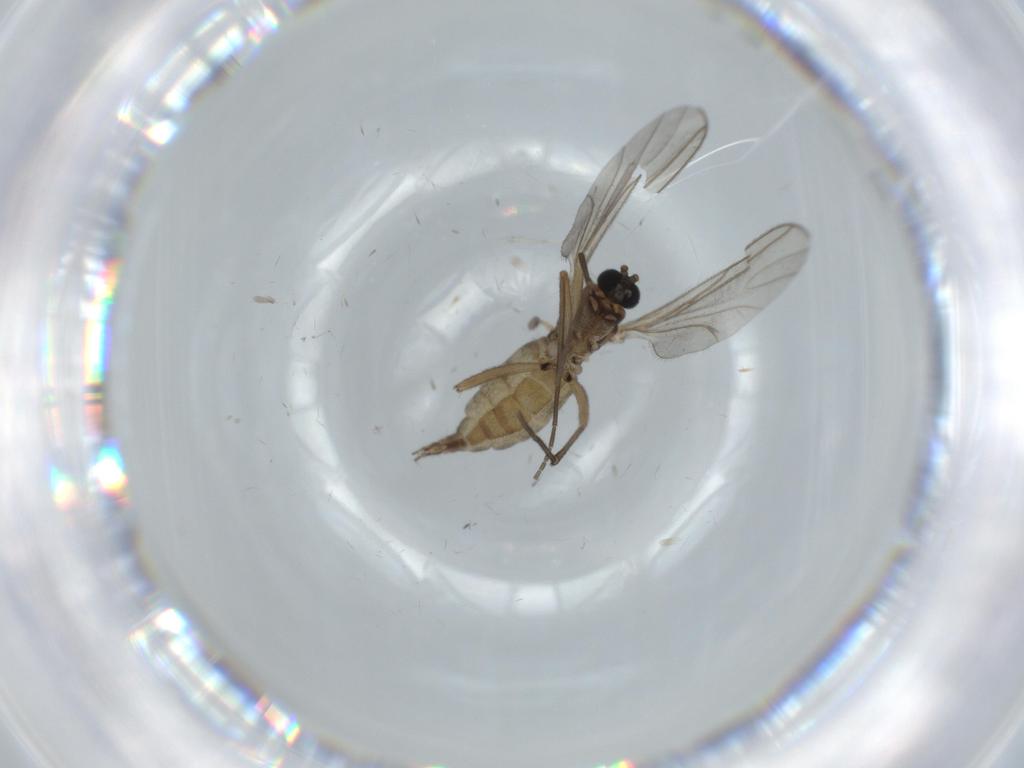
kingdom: Animalia
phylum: Arthropoda
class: Insecta
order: Diptera
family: Sciaridae
